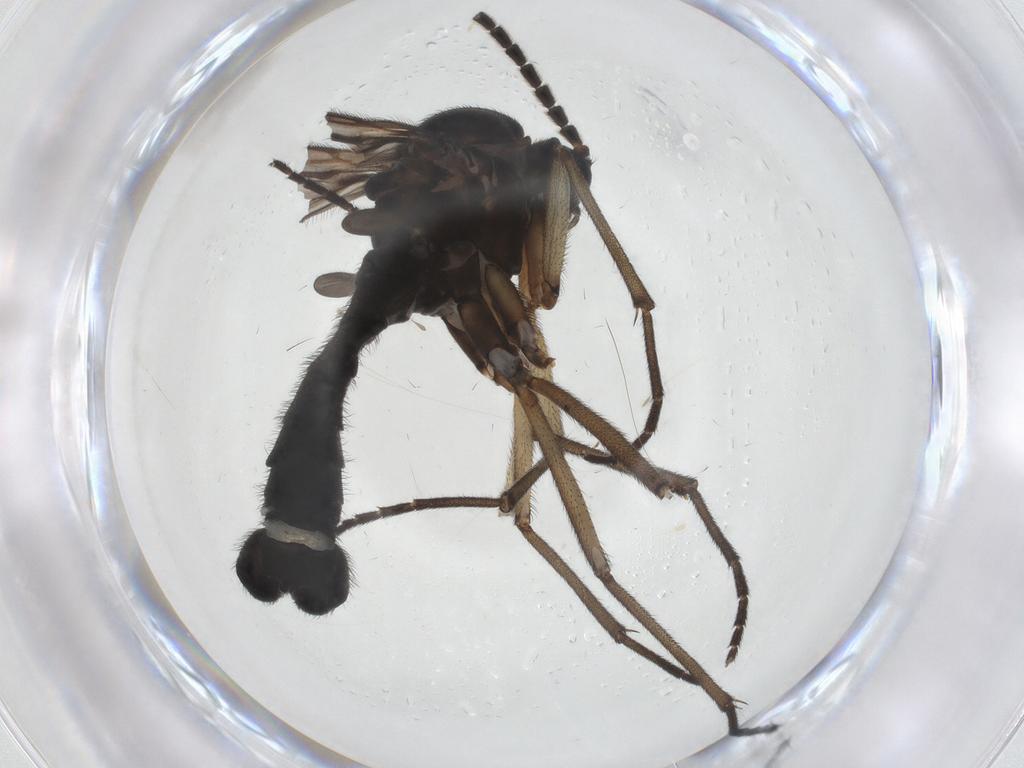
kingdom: Animalia
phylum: Arthropoda
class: Insecta
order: Diptera
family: Sciaridae
